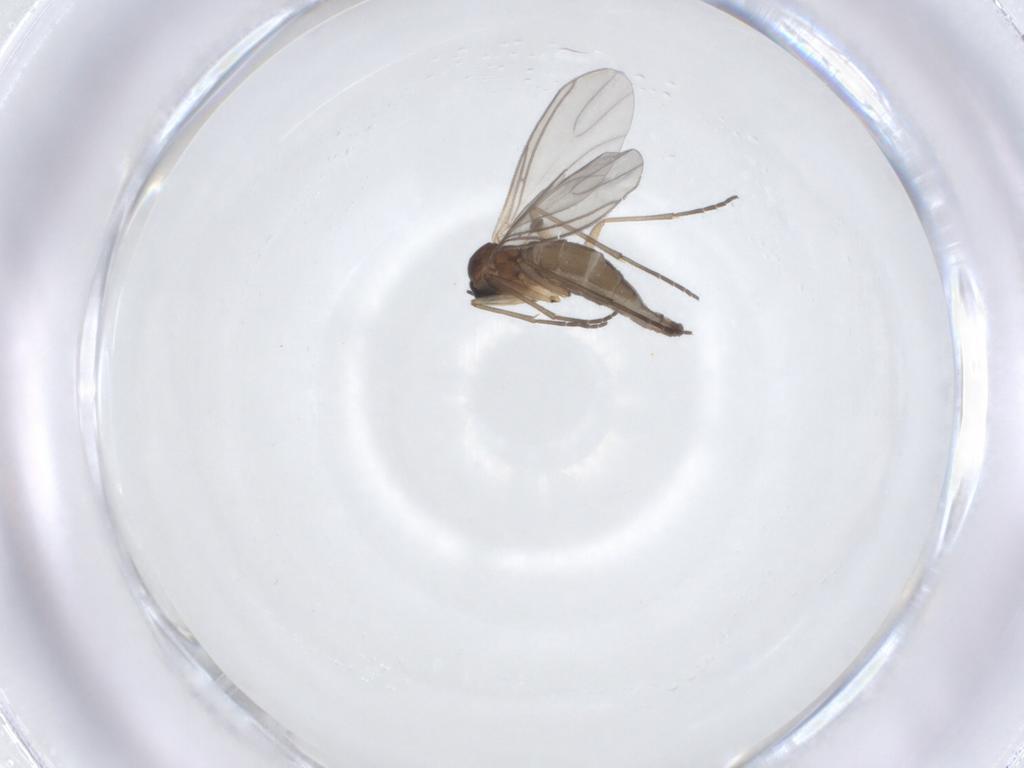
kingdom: Animalia
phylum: Arthropoda
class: Insecta
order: Diptera
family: Sciaridae
